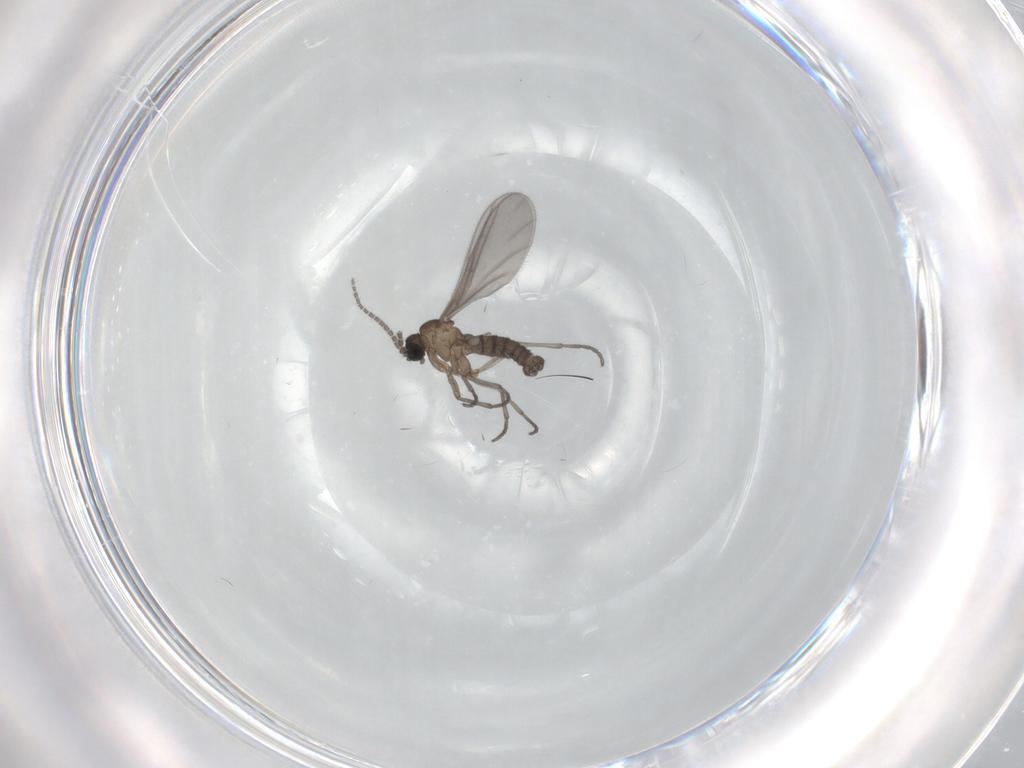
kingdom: Animalia
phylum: Arthropoda
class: Insecta
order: Diptera
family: Sciaridae
